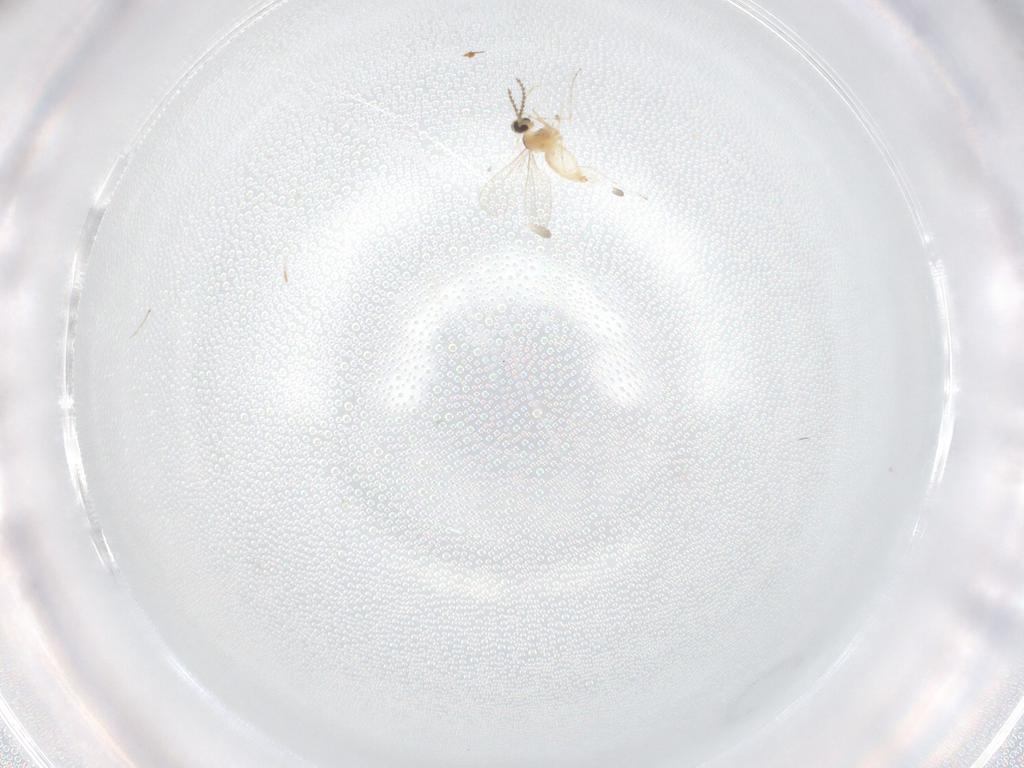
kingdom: Animalia
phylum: Arthropoda
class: Insecta
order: Diptera
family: Cecidomyiidae
